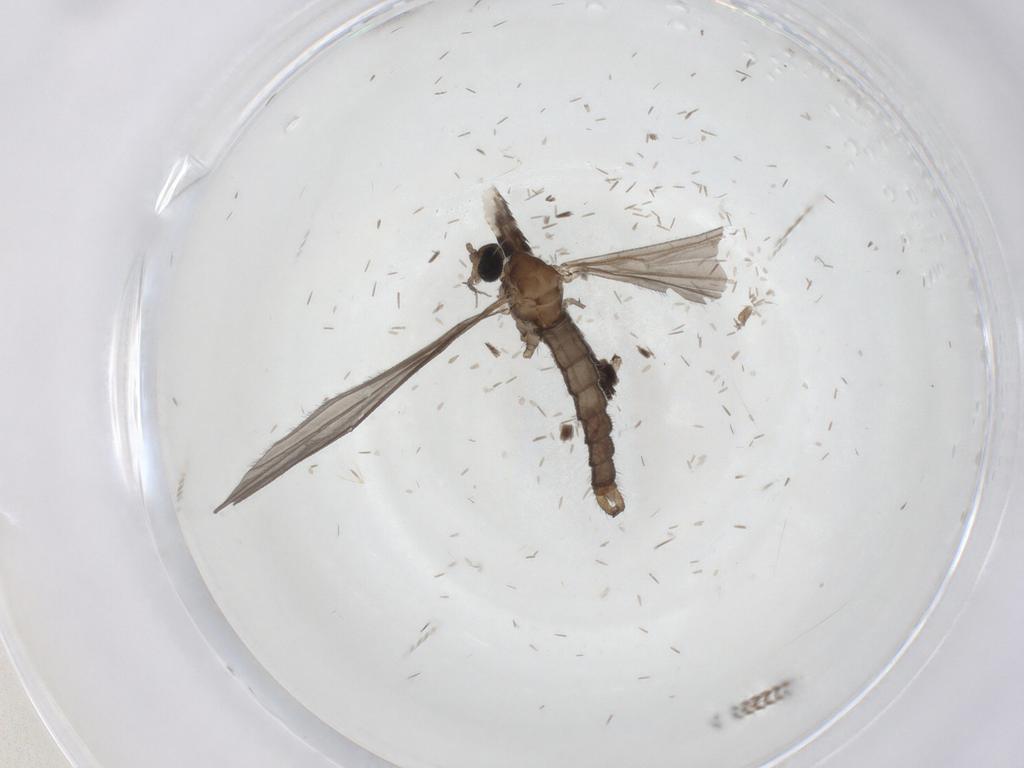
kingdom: Animalia
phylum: Arthropoda
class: Insecta
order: Diptera
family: Limoniidae
